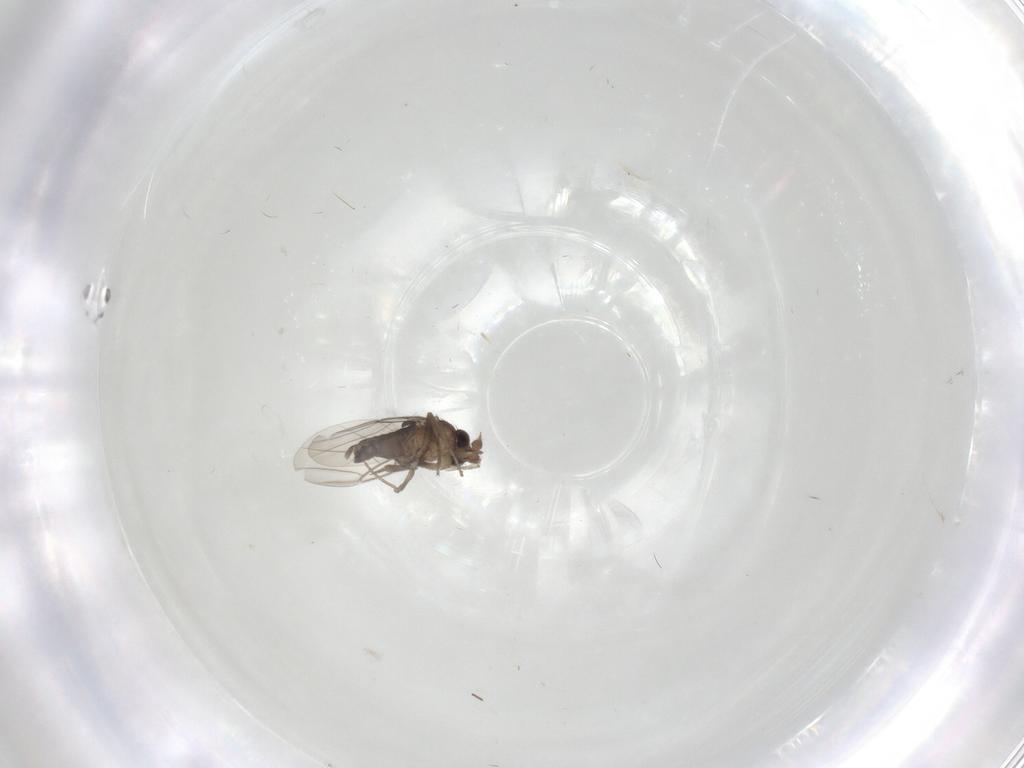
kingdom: Animalia
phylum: Arthropoda
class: Insecta
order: Diptera
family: Phoridae
